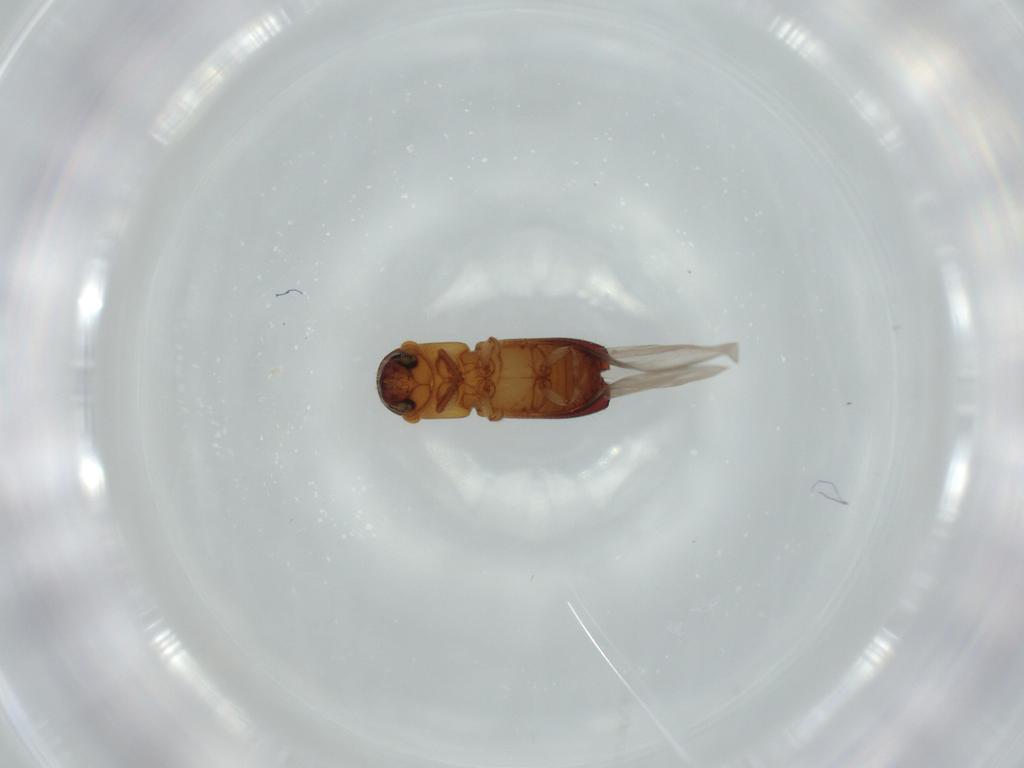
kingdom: Animalia
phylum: Arthropoda
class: Insecta
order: Coleoptera
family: Curculionidae
